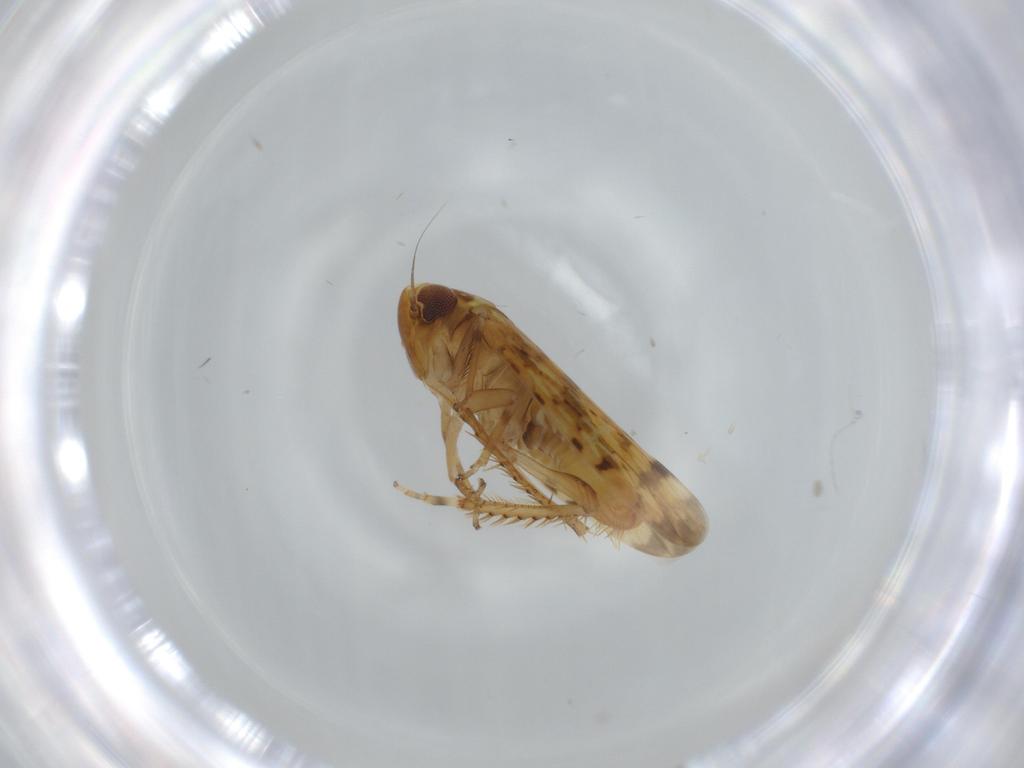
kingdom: Animalia
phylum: Arthropoda
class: Insecta
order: Hemiptera
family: Cicadellidae
